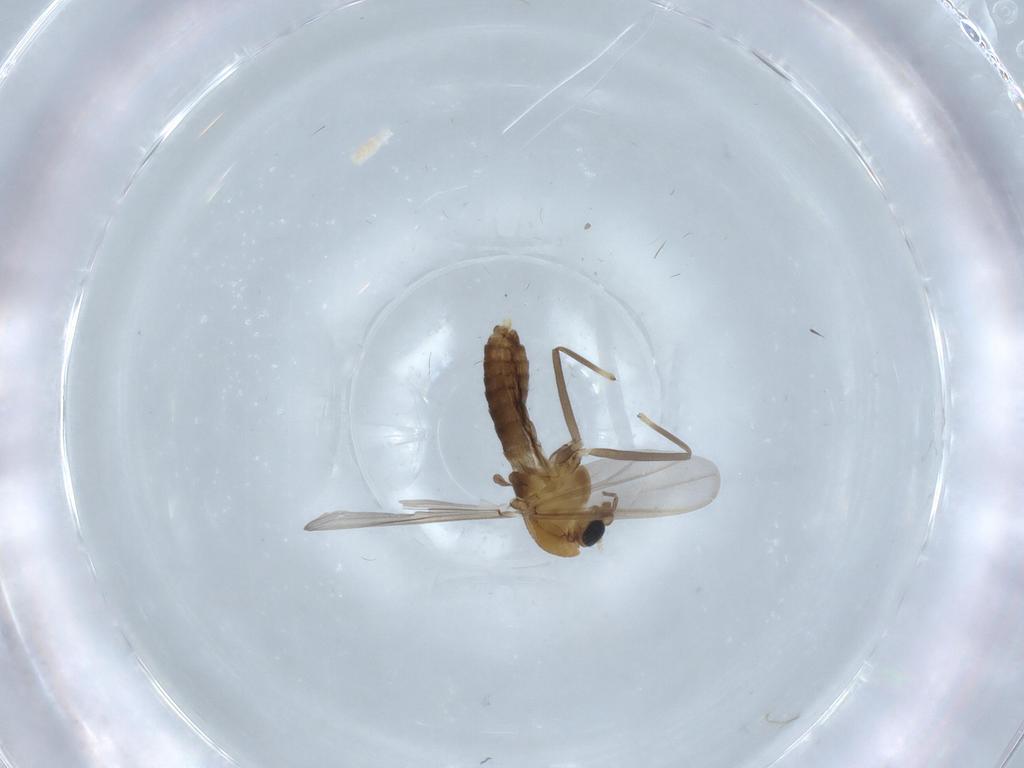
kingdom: Animalia
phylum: Arthropoda
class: Insecta
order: Diptera
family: Chironomidae
